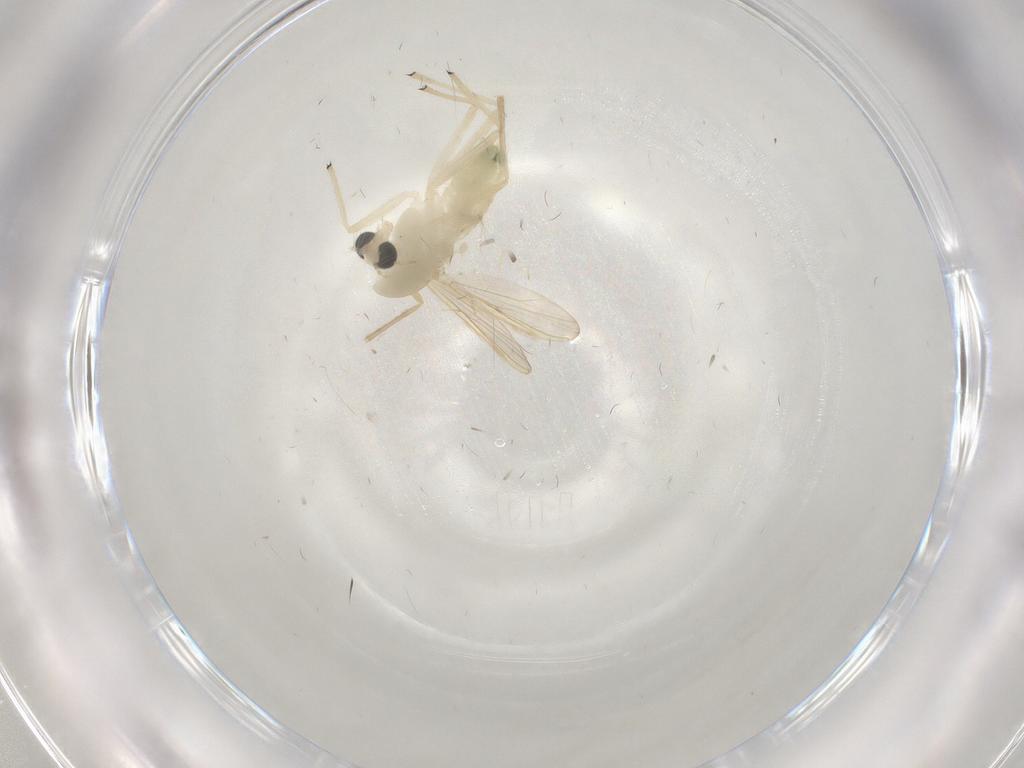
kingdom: Animalia
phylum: Arthropoda
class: Insecta
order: Diptera
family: Chironomidae
